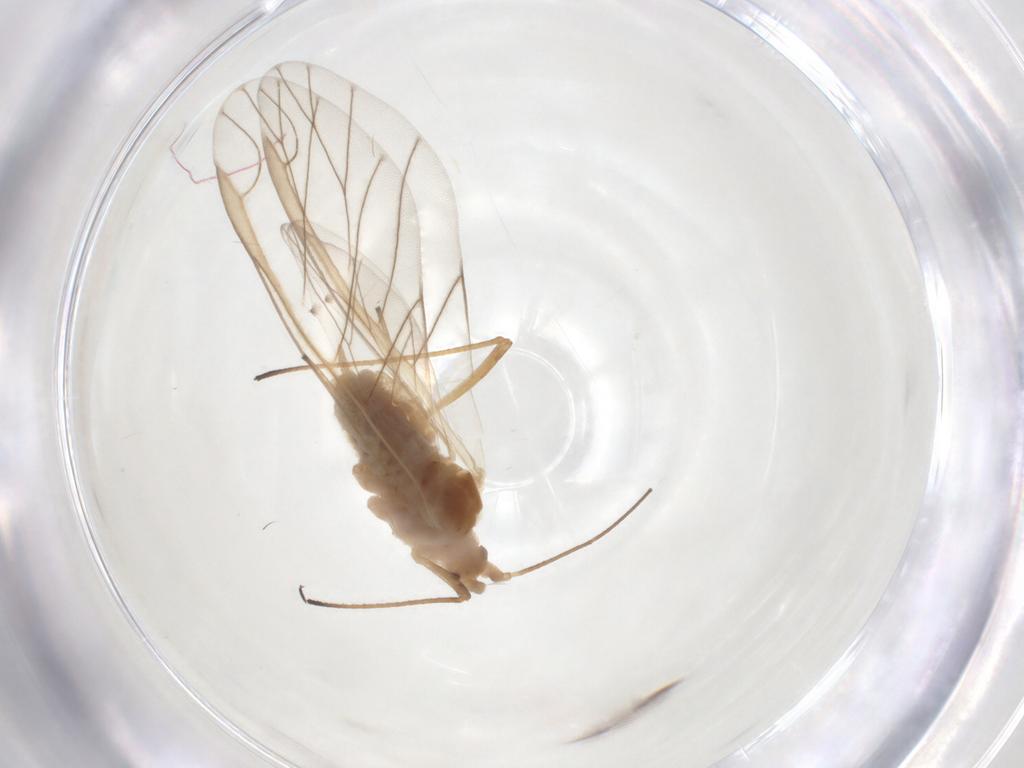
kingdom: Animalia
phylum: Arthropoda
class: Insecta
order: Hemiptera
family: Aphididae
